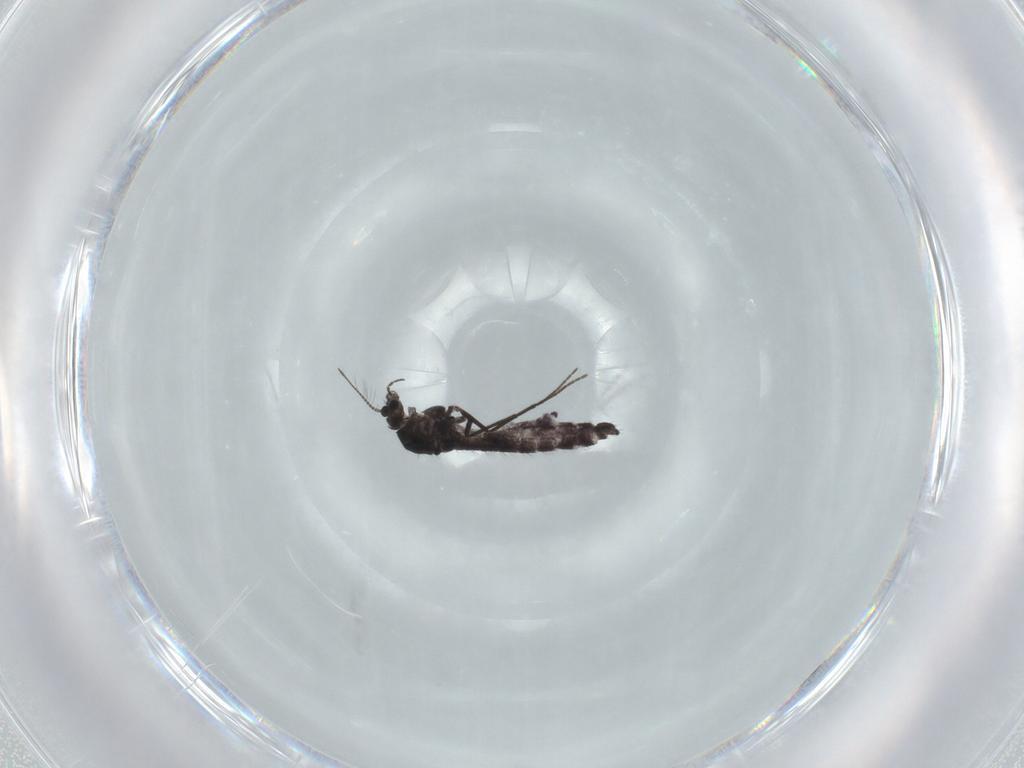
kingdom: Animalia
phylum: Arthropoda
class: Insecta
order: Diptera
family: Chironomidae
